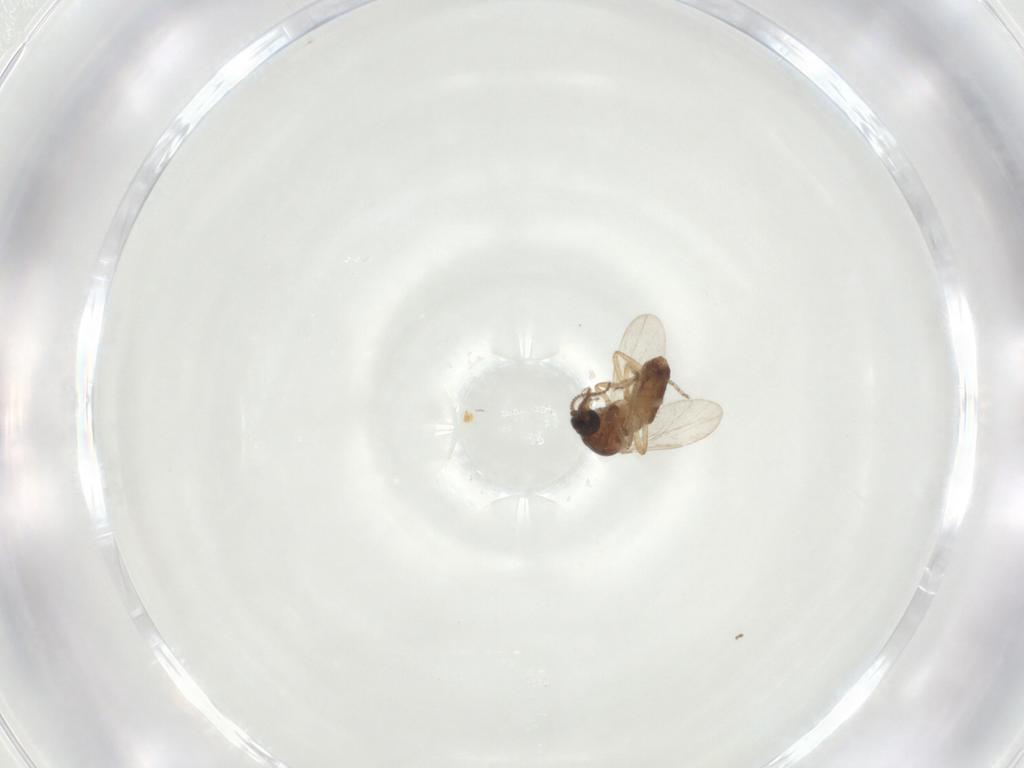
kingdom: Animalia
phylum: Arthropoda
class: Insecta
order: Diptera
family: Ceratopogonidae
